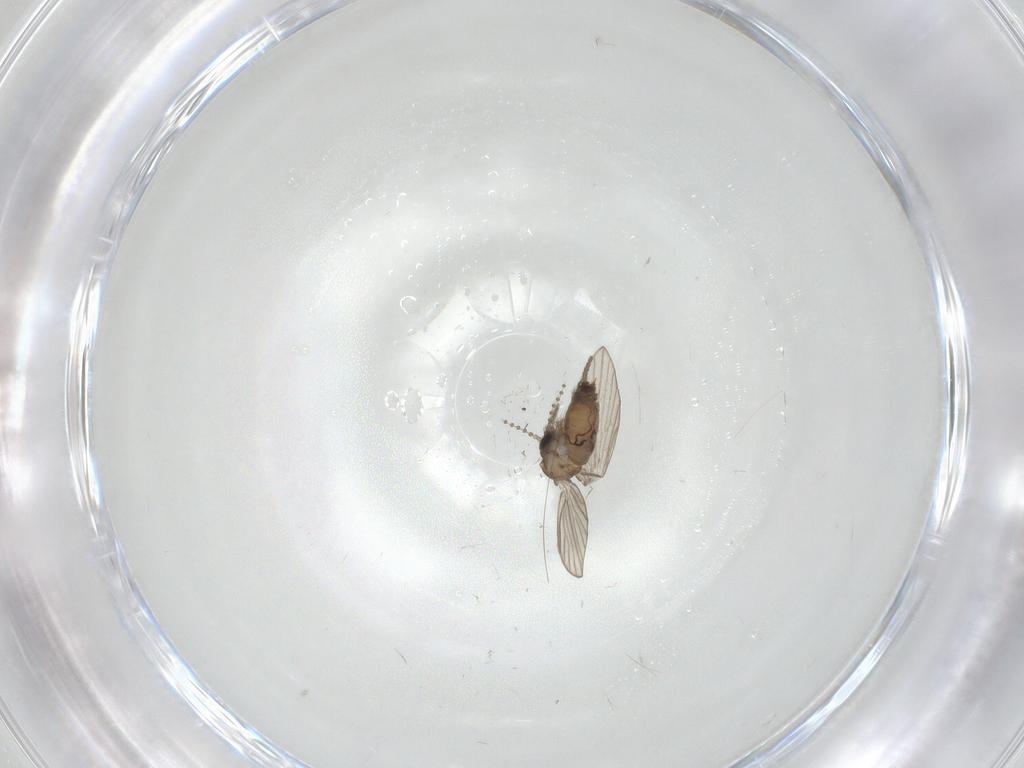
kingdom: Animalia
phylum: Arthropoda
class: Insecta
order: Diptera
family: Psychodidae
